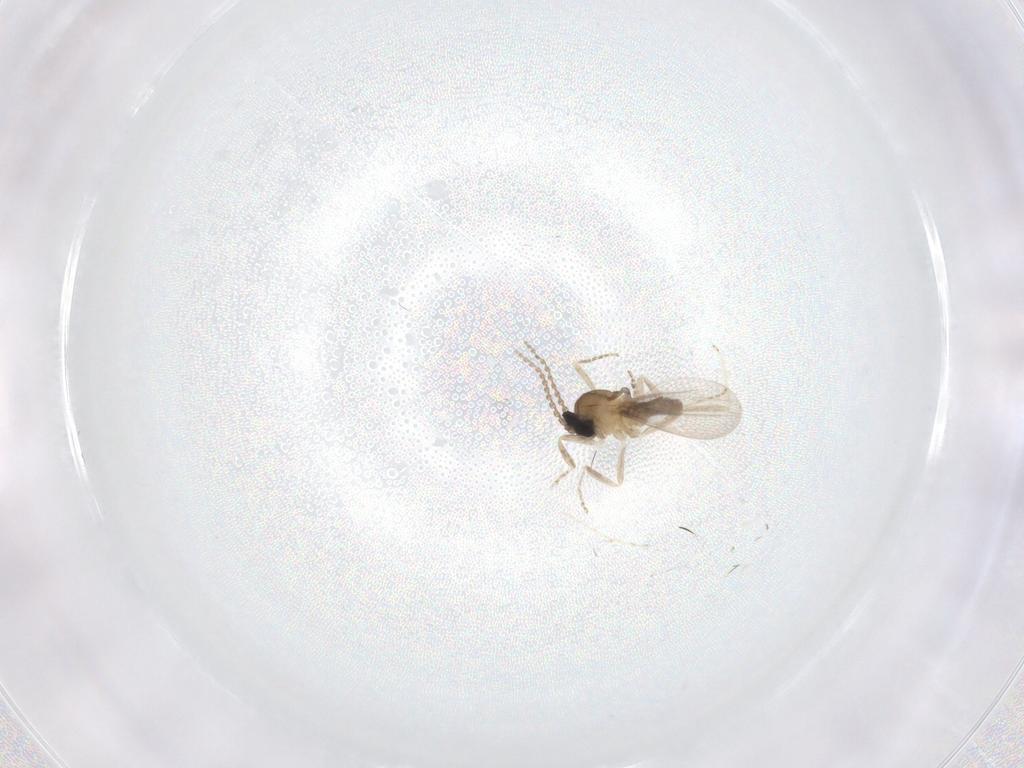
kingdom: Animalia
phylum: Arthropoda
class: Insecta
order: Diptera
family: Cecidomyiidae
